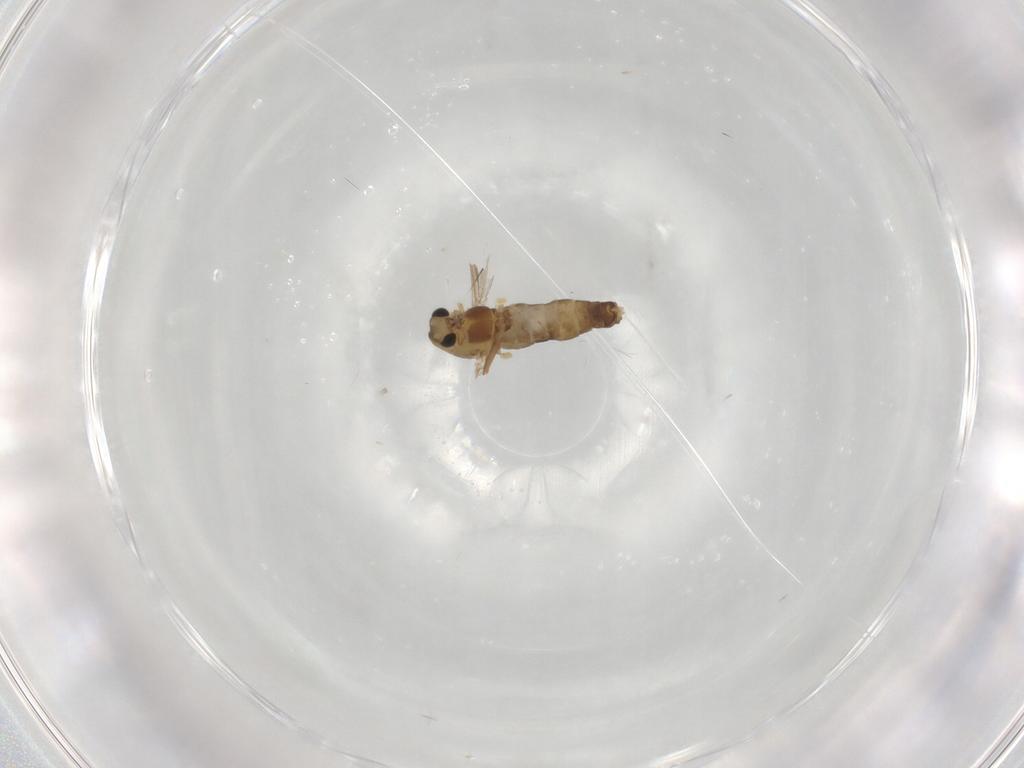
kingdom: Animalia
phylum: Arthropoda
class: Insecta
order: Diptera
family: Chironomidae
